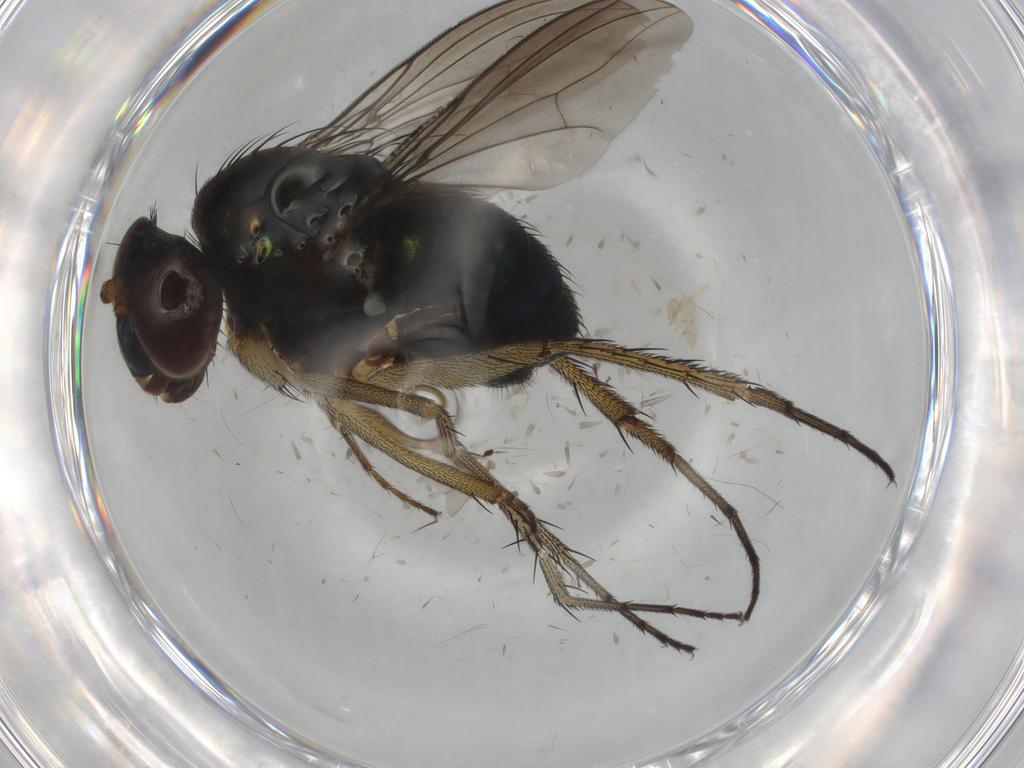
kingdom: Animalia
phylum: Arthropoda
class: Insecta
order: Diptera
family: Dolichopodidae
